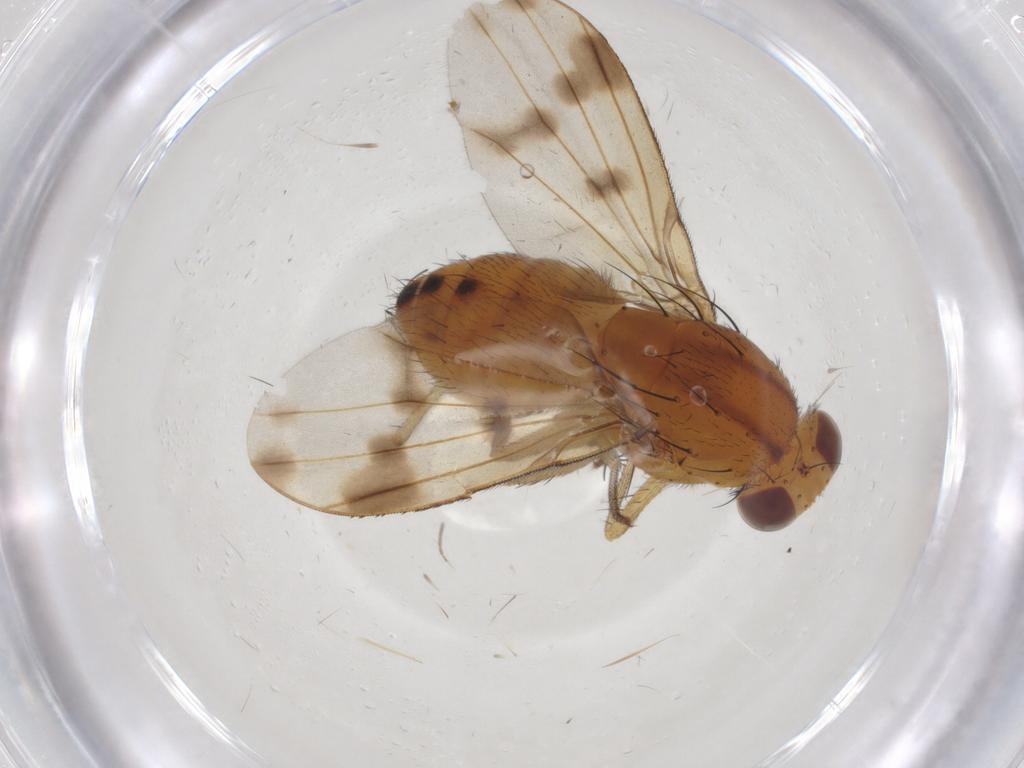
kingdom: Animalia
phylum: Arthropoda
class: Insecta
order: Diptera
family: Lauxaniidae
